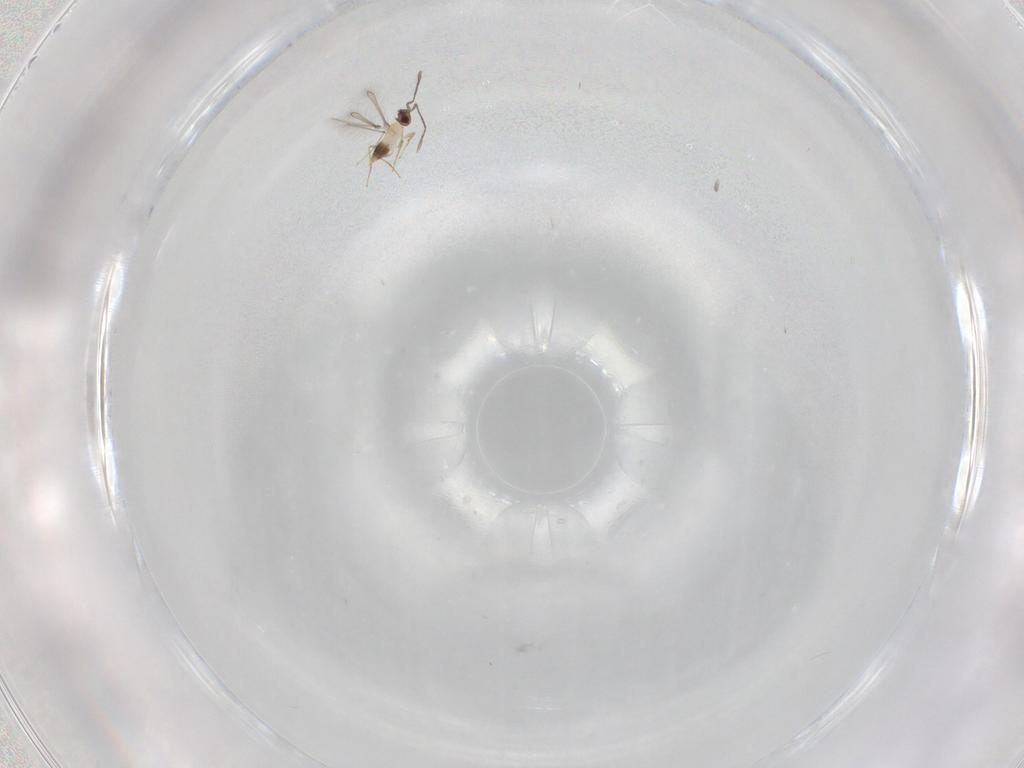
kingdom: Animalia
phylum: Arthropoda
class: Insecta
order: Hymenoptera
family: Mymaridae
